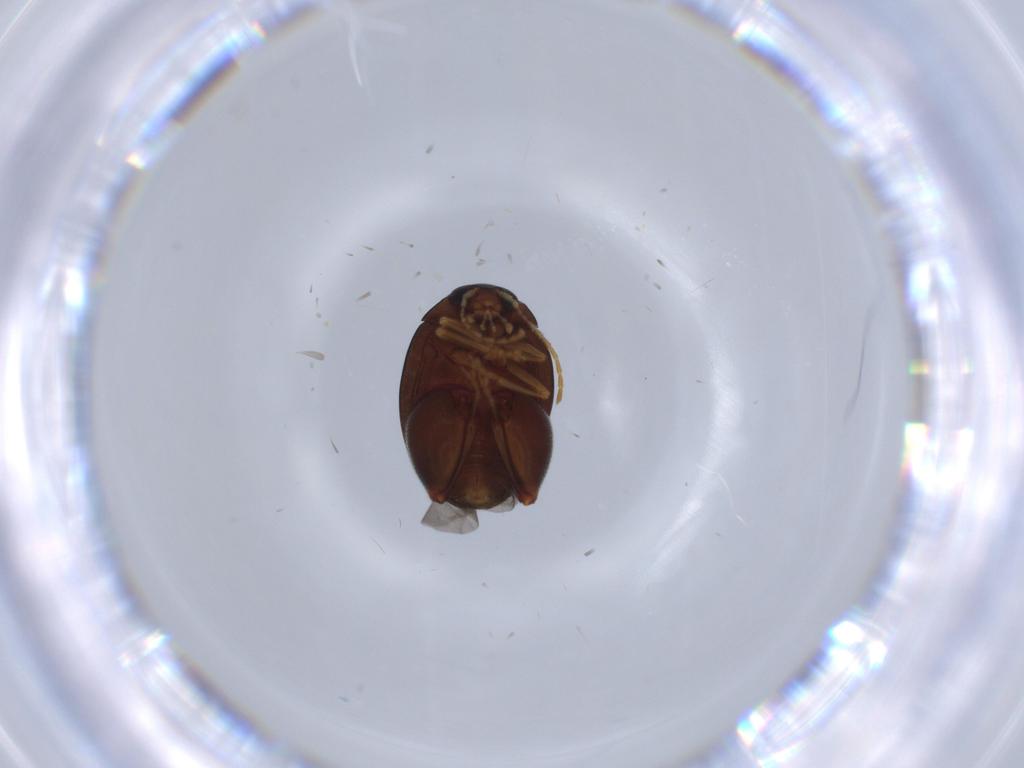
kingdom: Animalia
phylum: Arthropoda
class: Insecta
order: Coleoptera
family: Chrysomelidae
